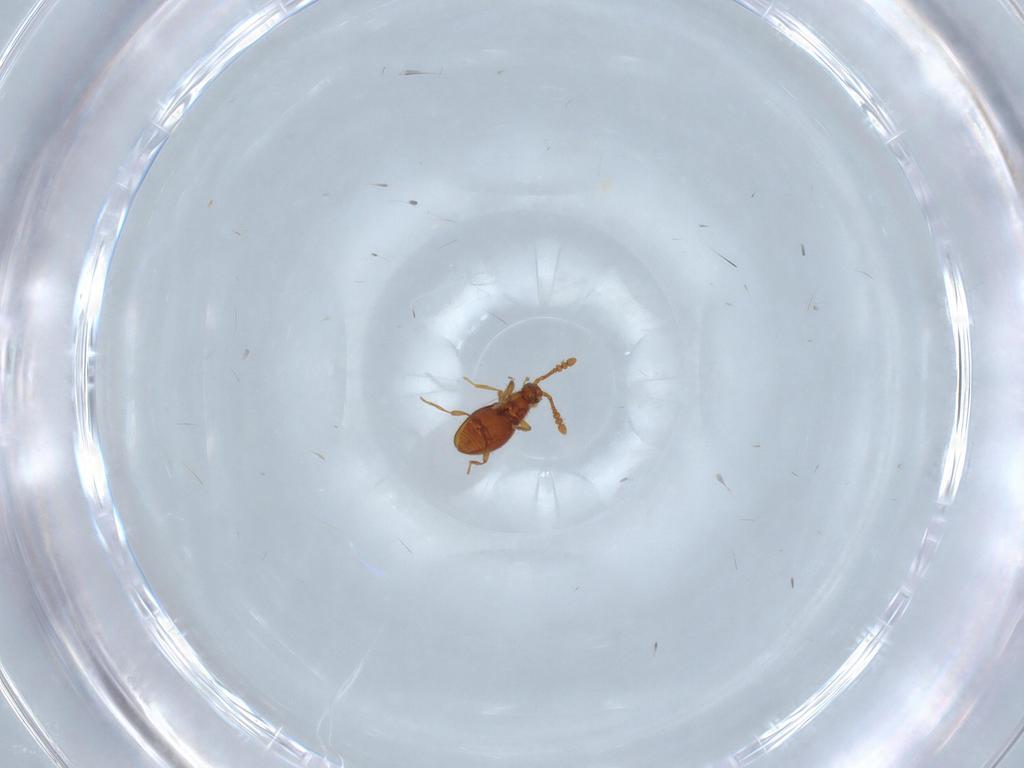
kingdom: Animalia
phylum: Arthropoda
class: Insecta
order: Coleoptera
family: Staphylinidae
